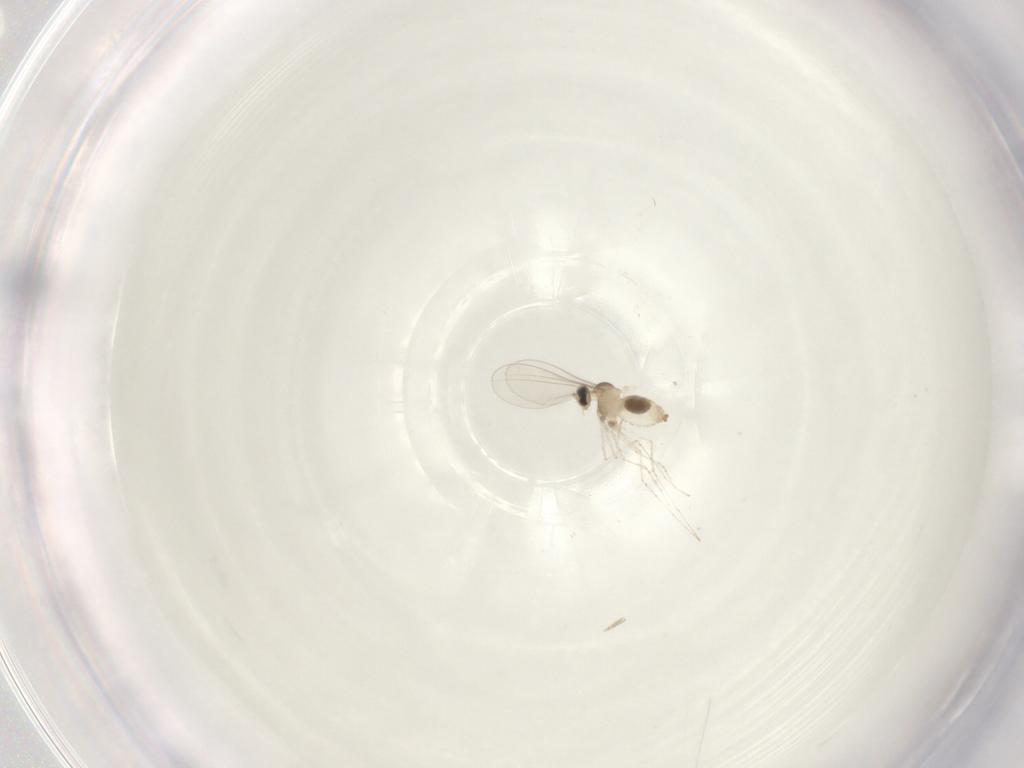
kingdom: Animalia
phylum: Arthropoda
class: Insecta
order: Diptera
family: Cecidomyiidae
